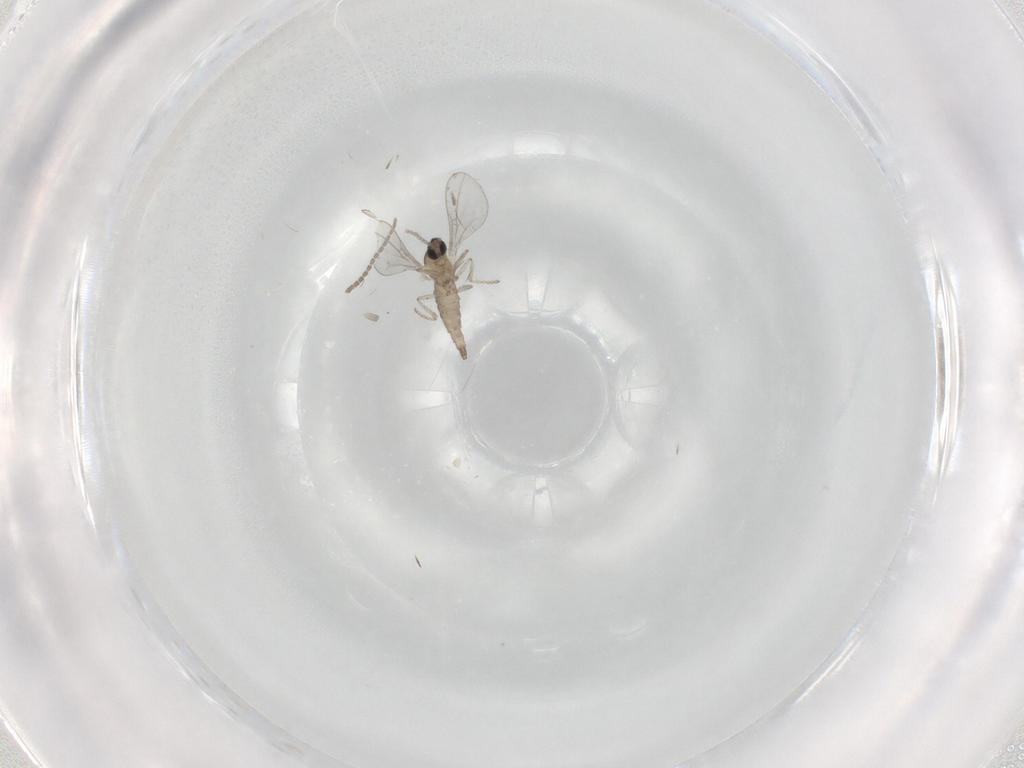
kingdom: Animalia
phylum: Arthropoda
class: Insecta
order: Diptera
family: Cecidomyiidae
